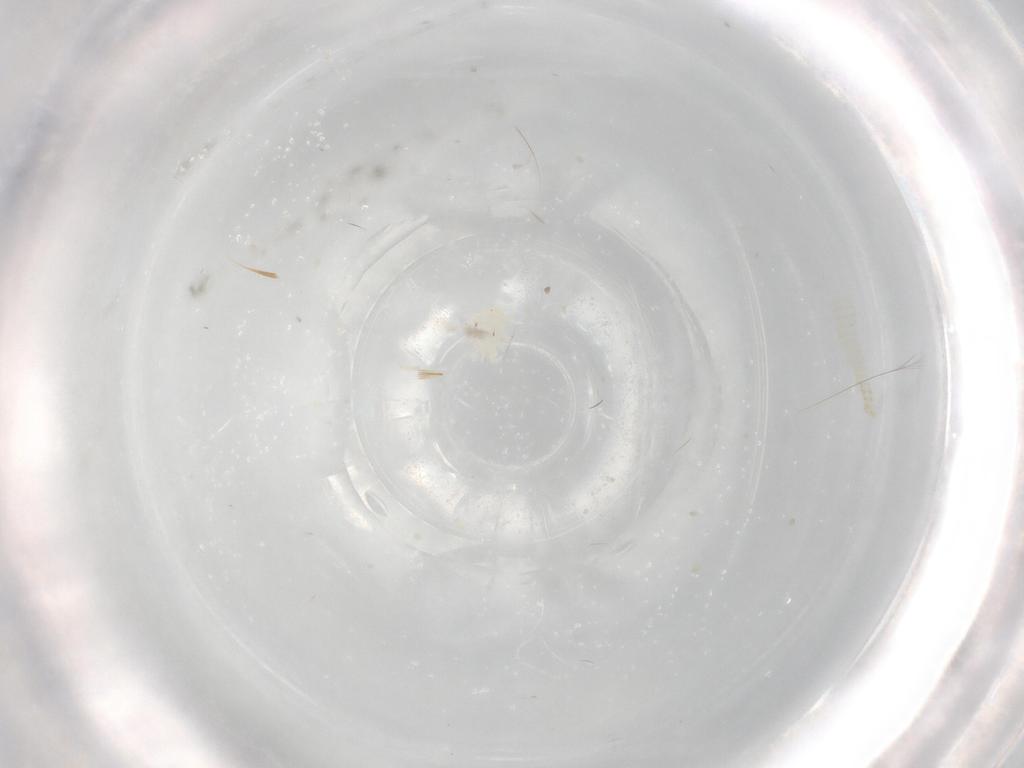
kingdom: Animalia
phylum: Arthropoda
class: Arachnida
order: Mesostigmata
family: Melicharidae
